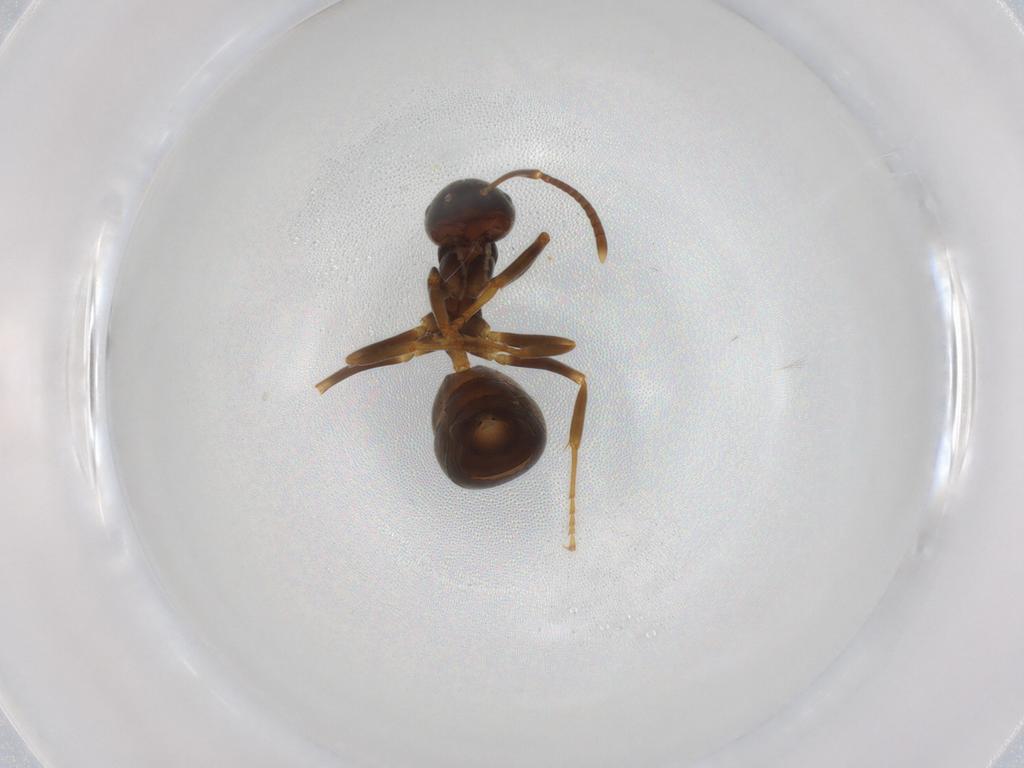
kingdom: Animalia
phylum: Arthropoda
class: Insecta
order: Hymenoptera
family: Formicidae
